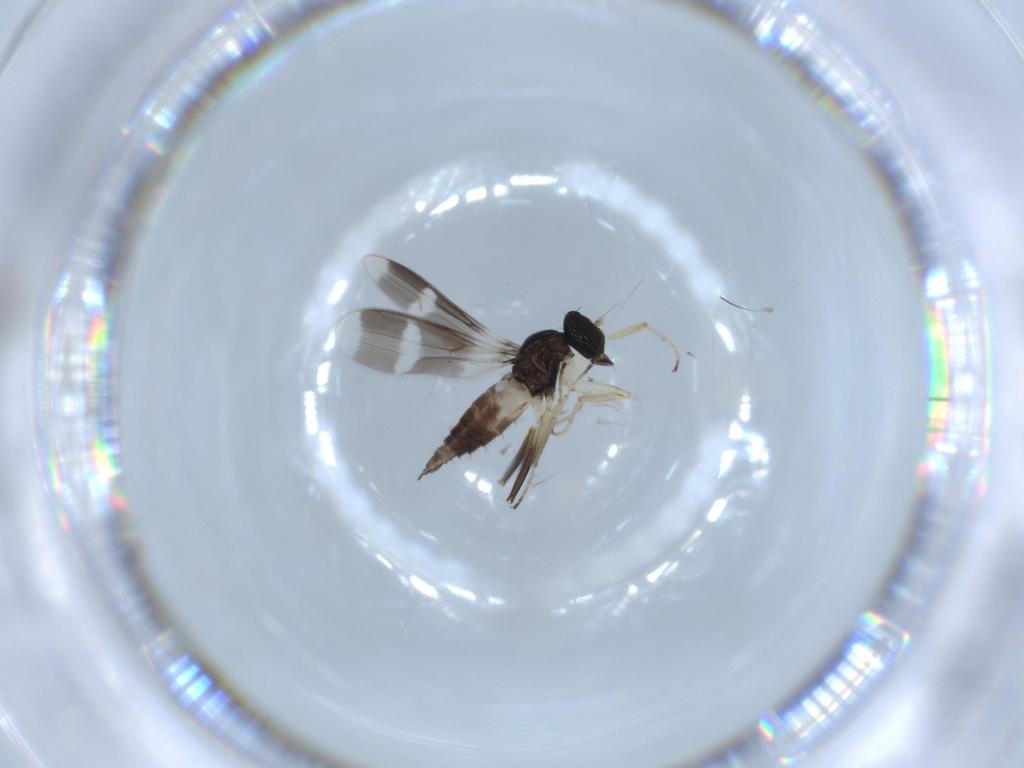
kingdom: Animalia
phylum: Arthropoda
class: Insecta
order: Diptera
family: Hybotidae
